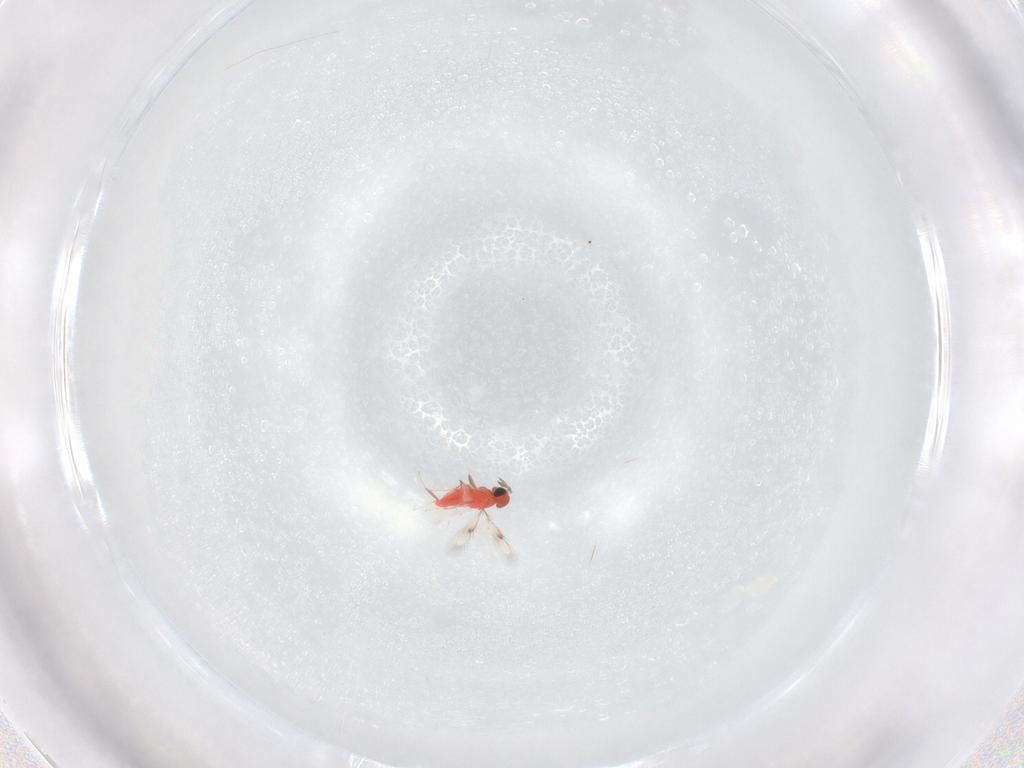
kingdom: Animalia
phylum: Arthropoda
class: Insecta
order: Hymenoptera
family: Trichogrammatidae
